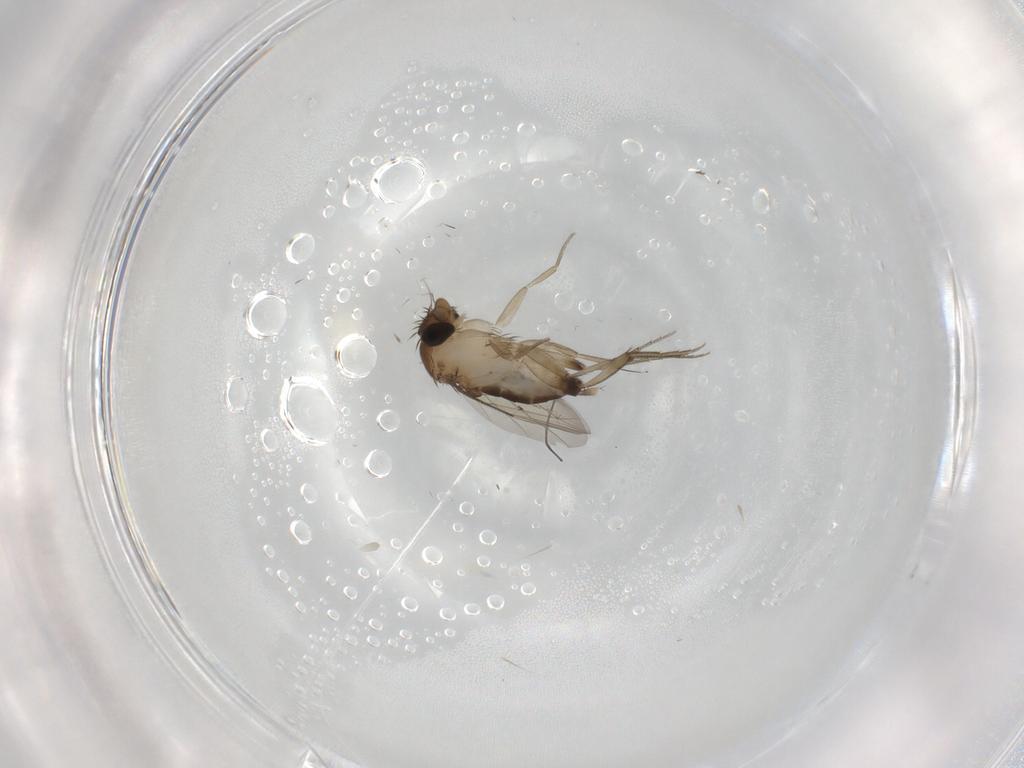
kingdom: Animalia
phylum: Arthropoda
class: Insecta
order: Diptera
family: Phoridae
